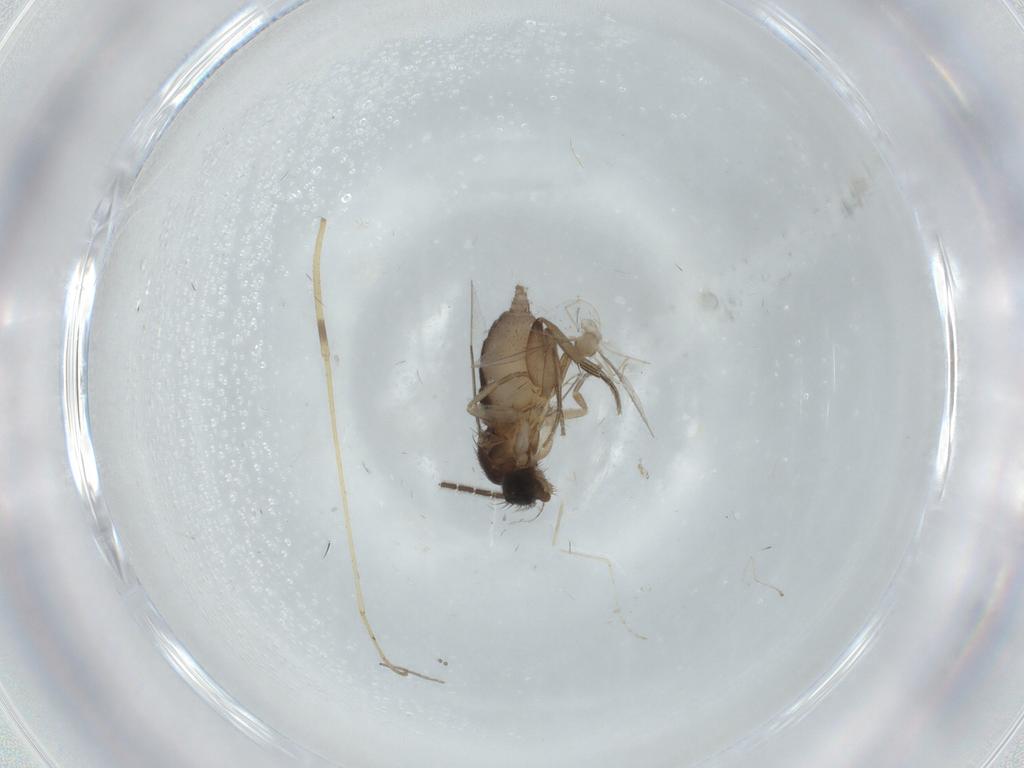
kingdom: Animalia
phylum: Arthropoda
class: Insecta
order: Diptera
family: Phoridae
